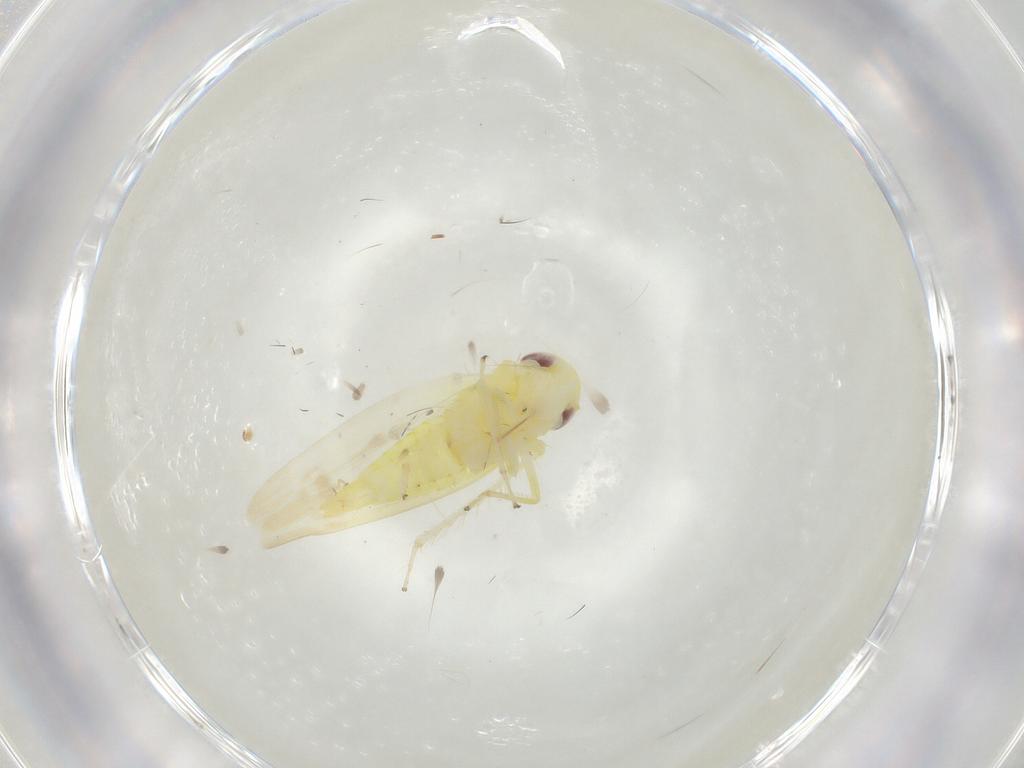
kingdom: Animalia
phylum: Arthropoda
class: Insecta
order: Hemiptera
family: Cicadellidae
